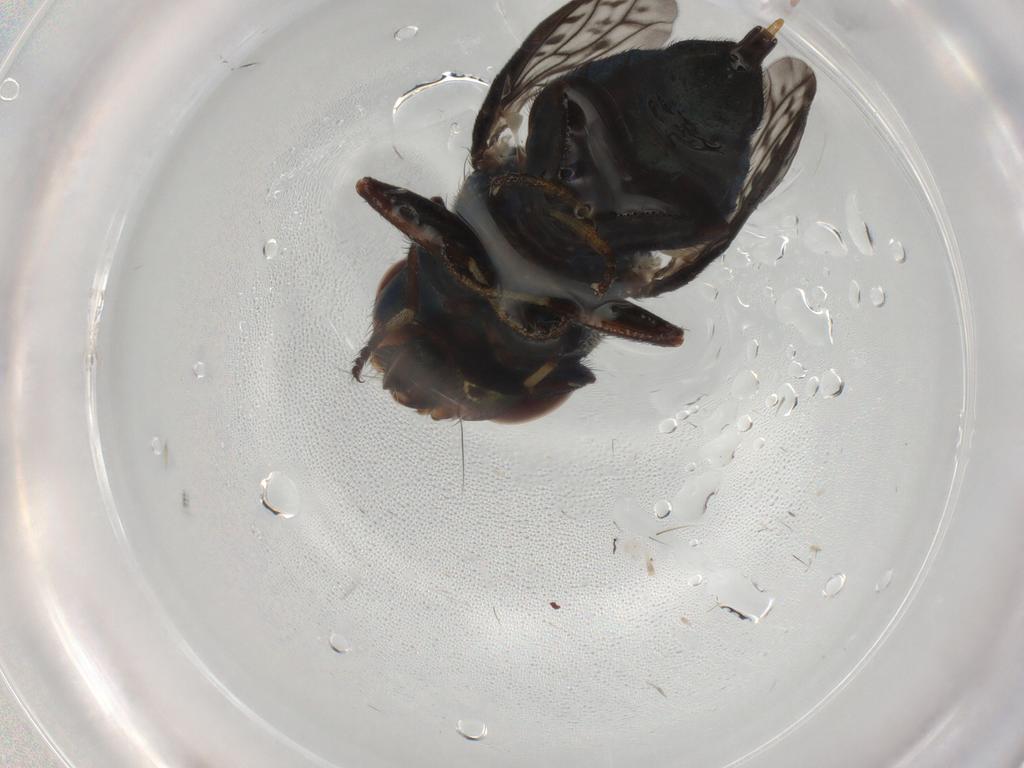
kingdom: Animalia
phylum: Arthropoda
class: Insecta
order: Diptera
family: Ulidiidae
